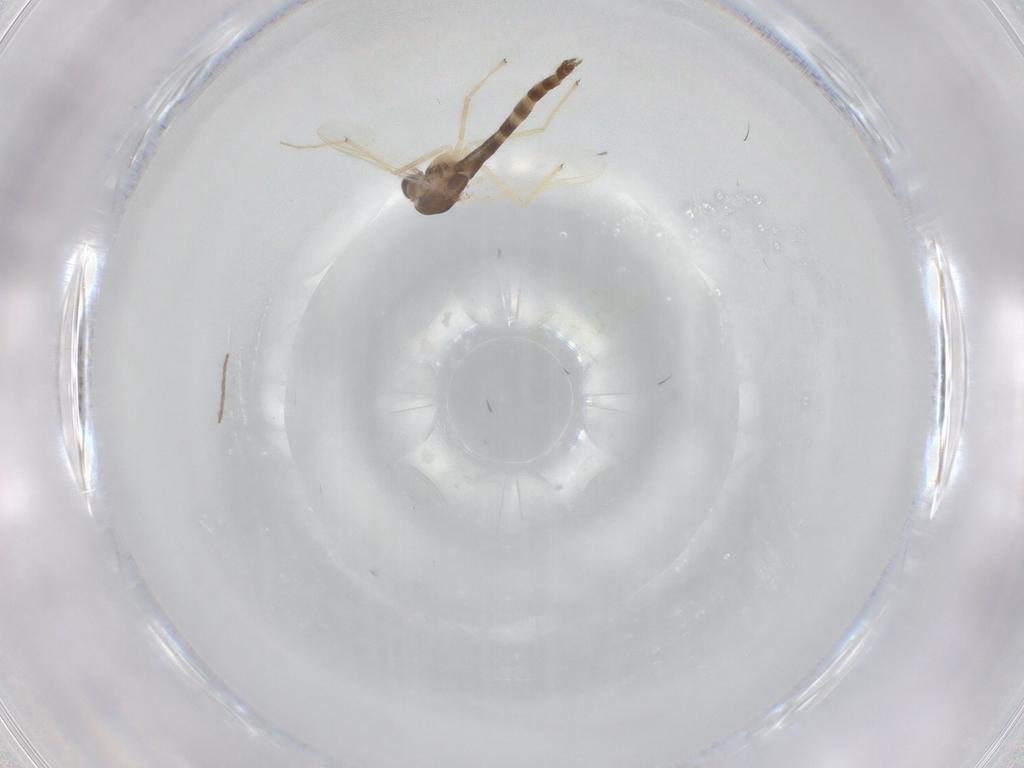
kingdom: Animalia
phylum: Arthropoda
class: Insecta
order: Diptera
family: Chironomidae
